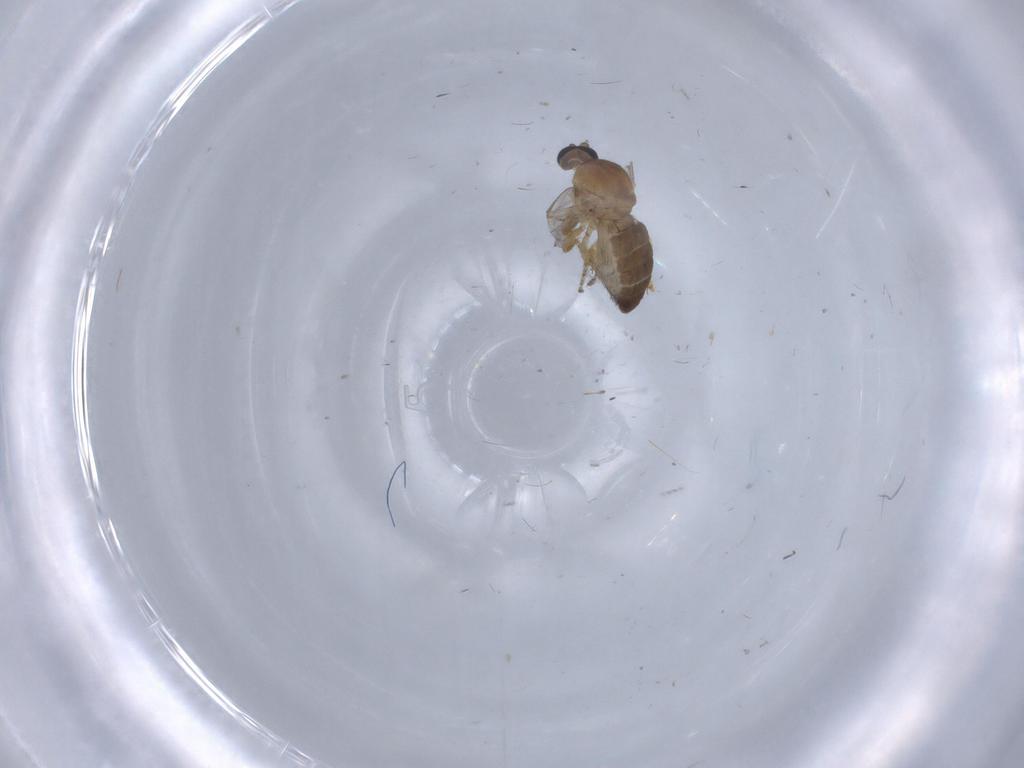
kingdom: Animalia
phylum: Arthropoda
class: Insecta
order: Diptera
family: Ceratopogonidae
